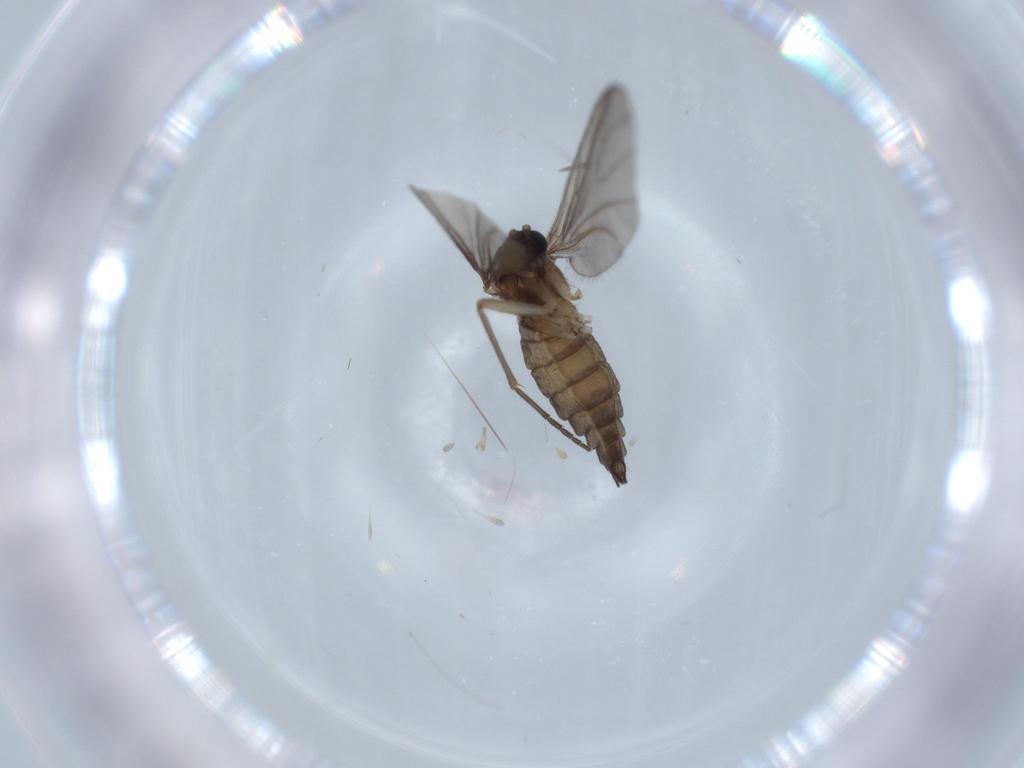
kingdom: Animalia
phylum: Arthropoda
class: Insecta
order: Diptera
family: Sciaridae
